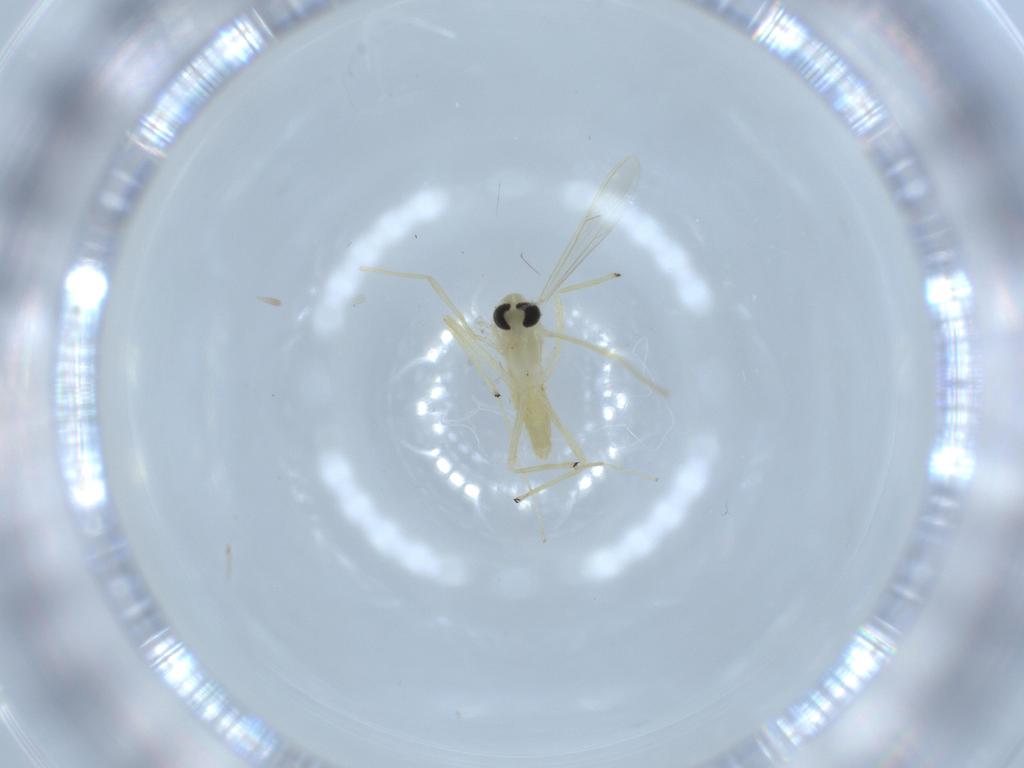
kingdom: Animalia
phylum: Arthropoda
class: Insecta
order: Diptera
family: Chironomidae
